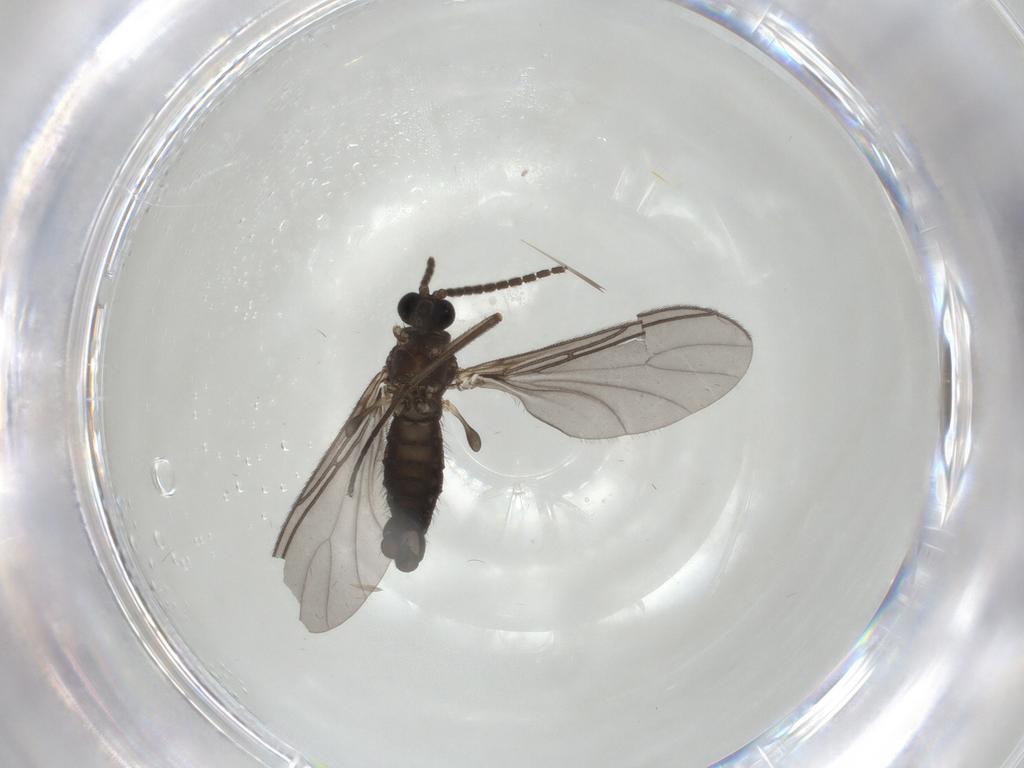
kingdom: Animalia
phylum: Arthropoda
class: Insecta
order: Diptera
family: Sciaridae
